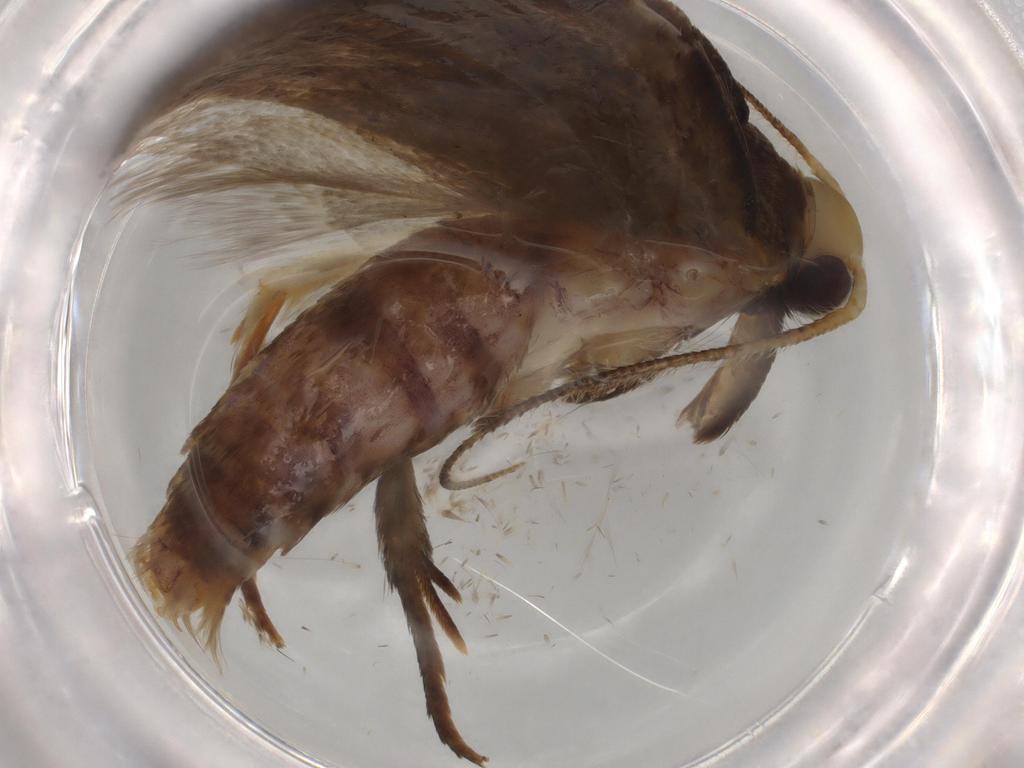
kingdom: Animalia
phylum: Arthropoda
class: Insecta
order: Lepidoptera
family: Oecophoridae
